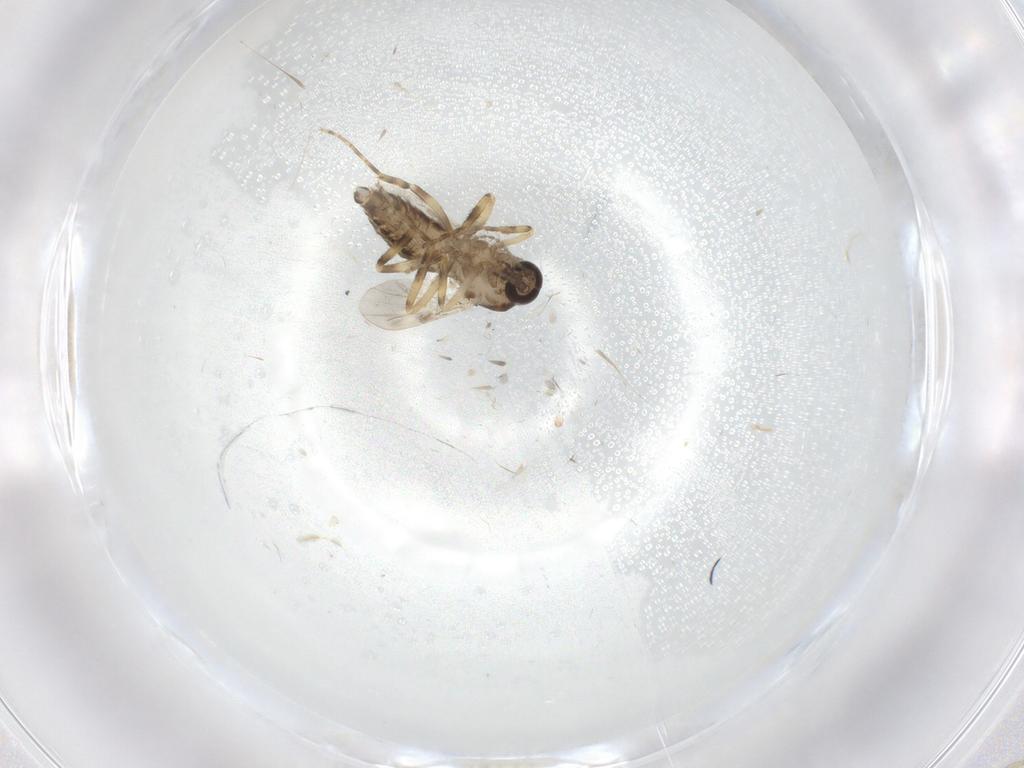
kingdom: Animalia
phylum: Arthropoda
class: Insecta
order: Diptera
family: Ceratopogonidae
